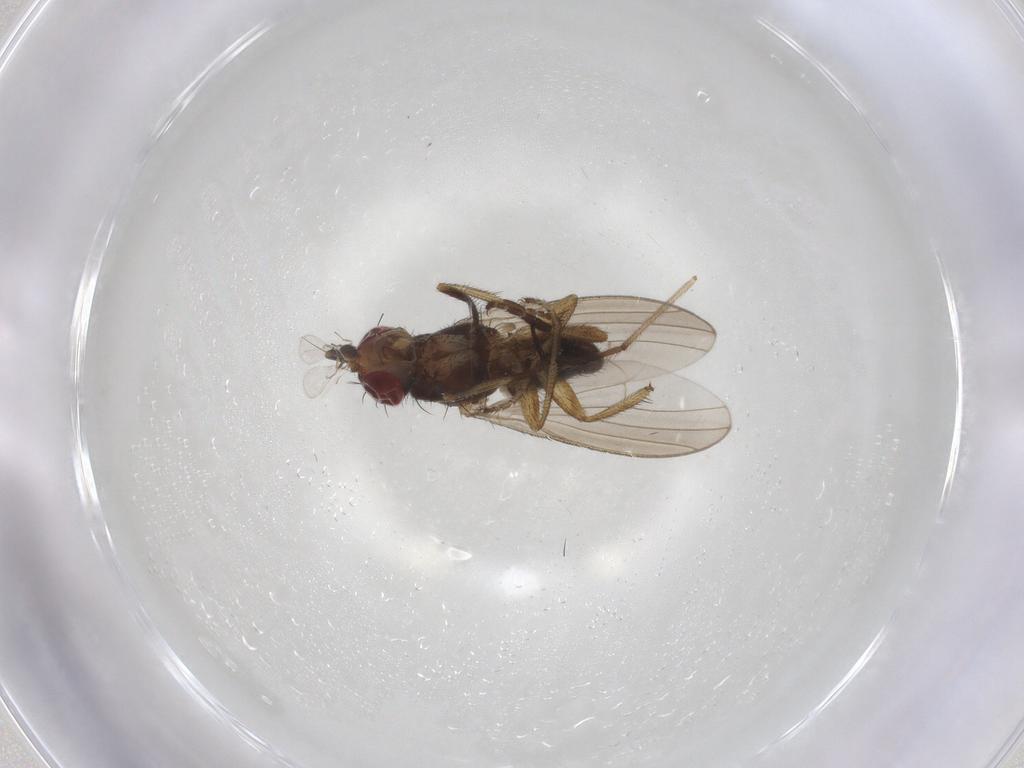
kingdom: Animalia
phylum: Arthropoda
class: Insecta
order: Diptera
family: Heleomyzidae
